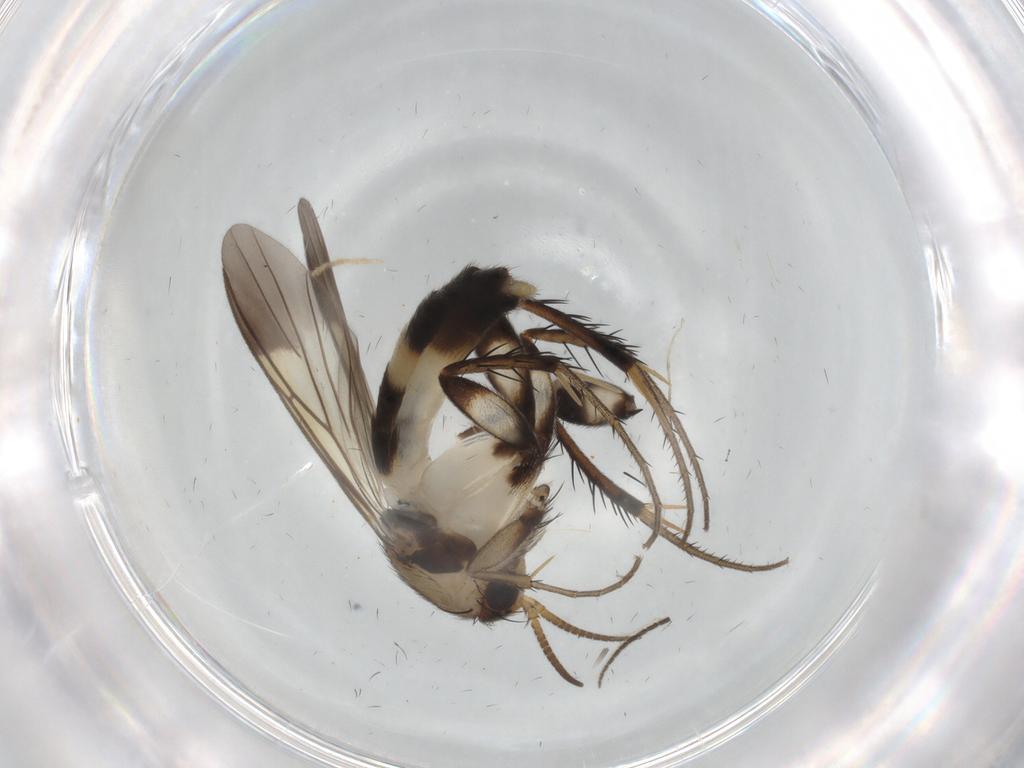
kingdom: Animalia
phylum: Arthropoda
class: Insecta
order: Diptera
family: Mycetophilidae
